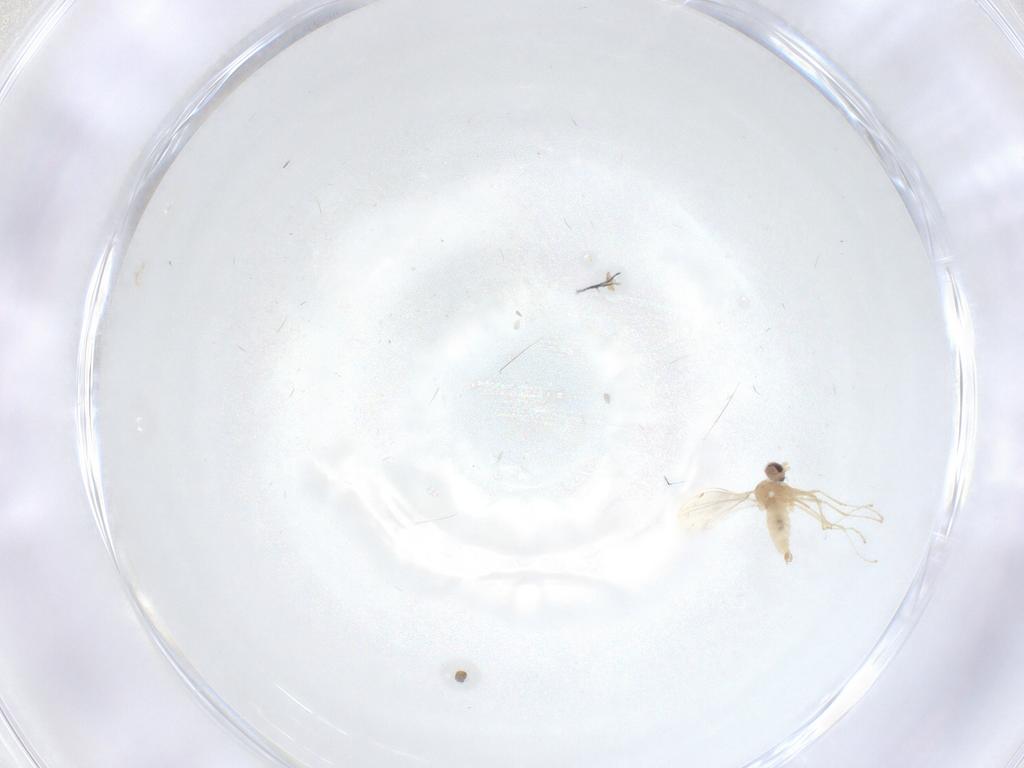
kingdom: Animalia
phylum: Arthropoda
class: Insecta
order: Diptera
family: Cecidomyiidae
